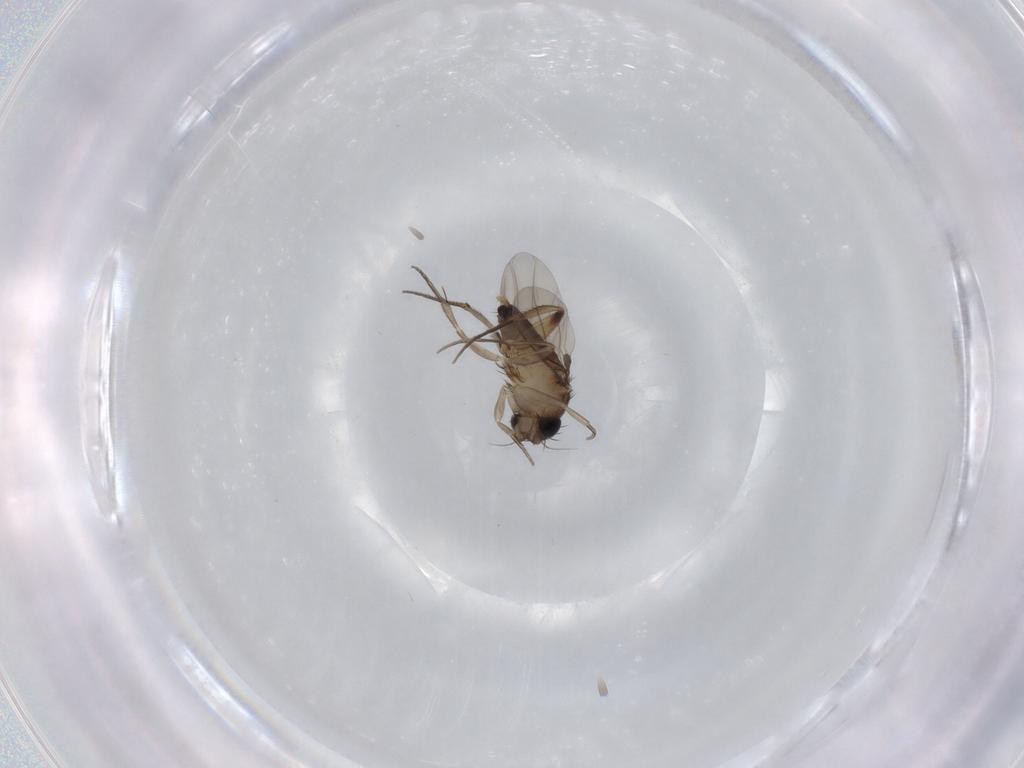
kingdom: Animalia
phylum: Arthropoda
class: Insecta
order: Diptera
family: Phoridae
